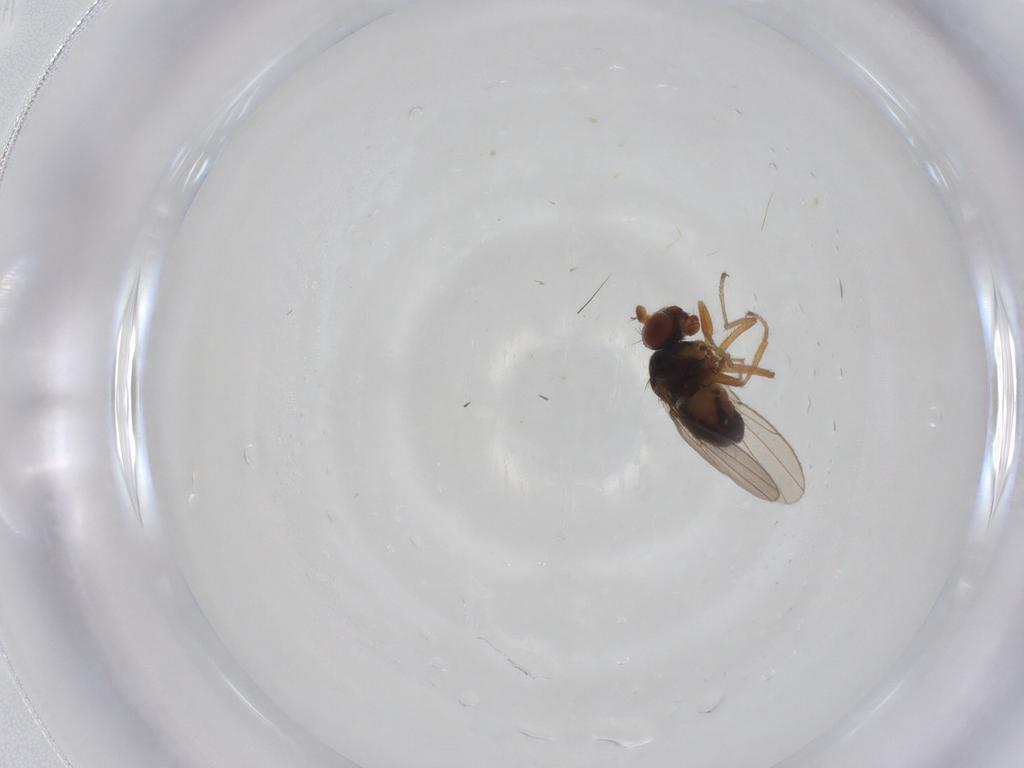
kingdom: Animalia
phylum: Arthropoda
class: Insecta
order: Diptera
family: Ephydridae
